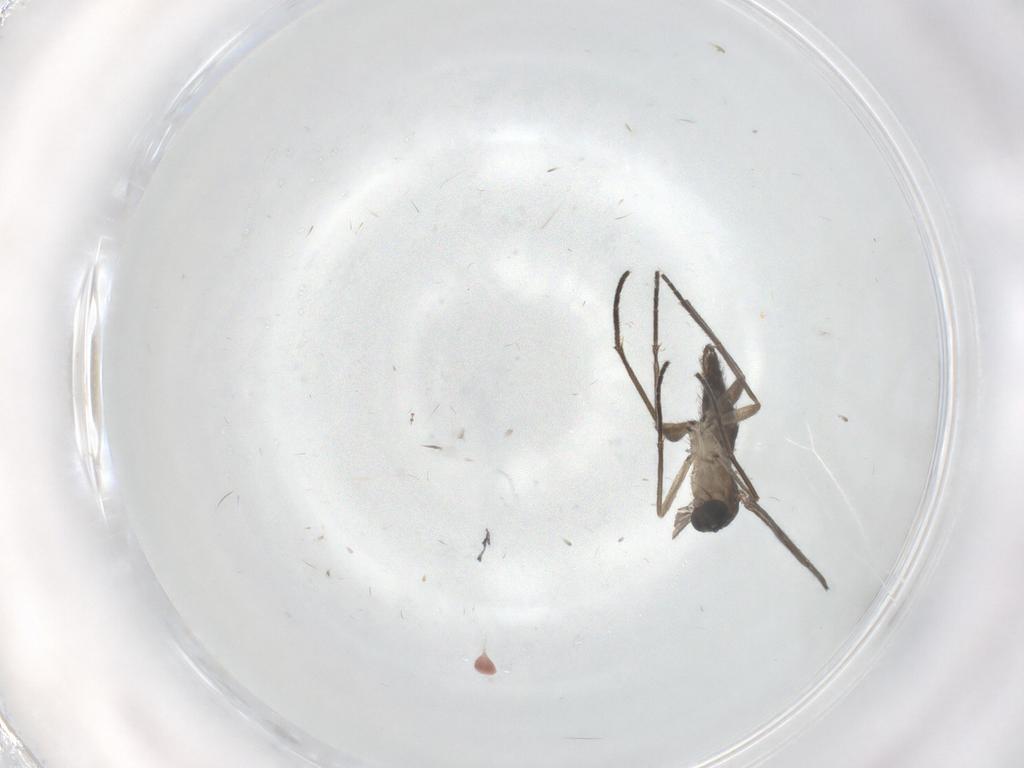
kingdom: Animalia
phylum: Arthropoda
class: Insecta
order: Diptera
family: Sciaridae
